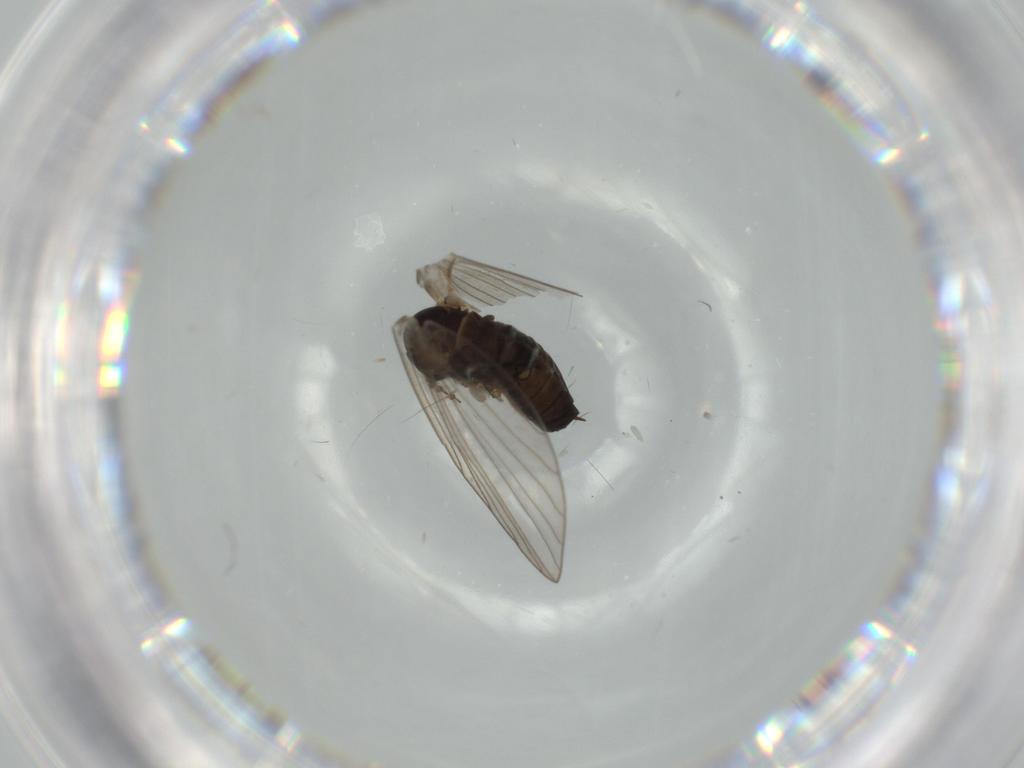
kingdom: Animalia
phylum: Arthropoda
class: Insecta
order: Diptera
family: Psychodidae
